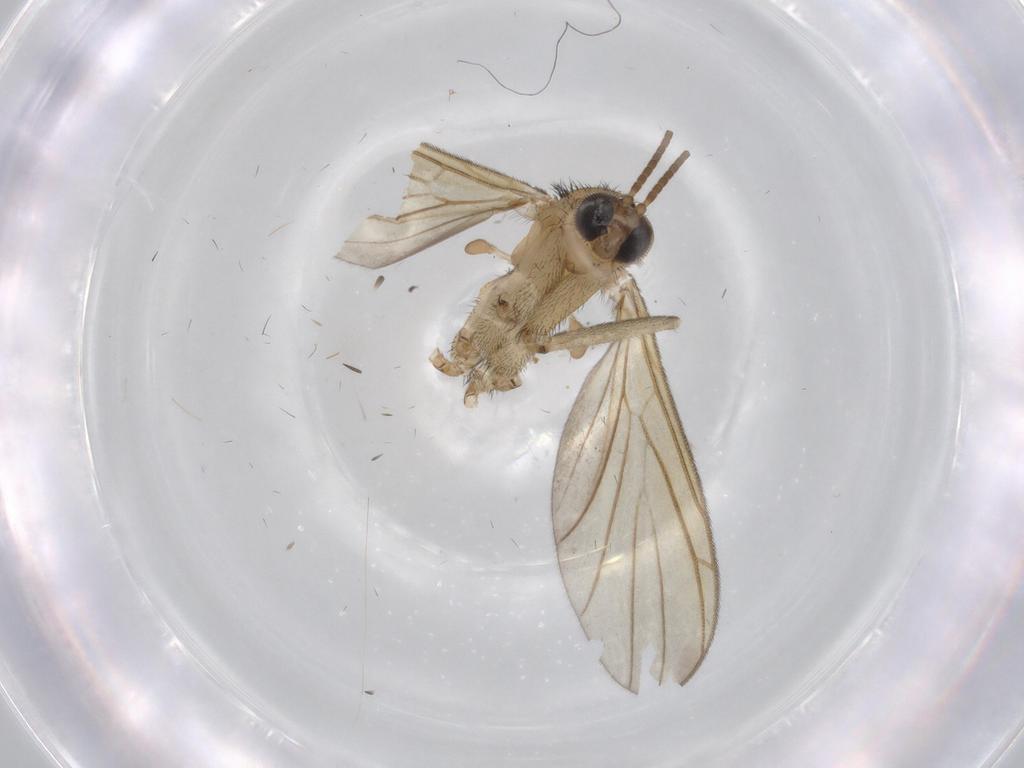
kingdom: Animalia
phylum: Arthropoda
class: Insecta
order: Diptera
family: Sciaridae
